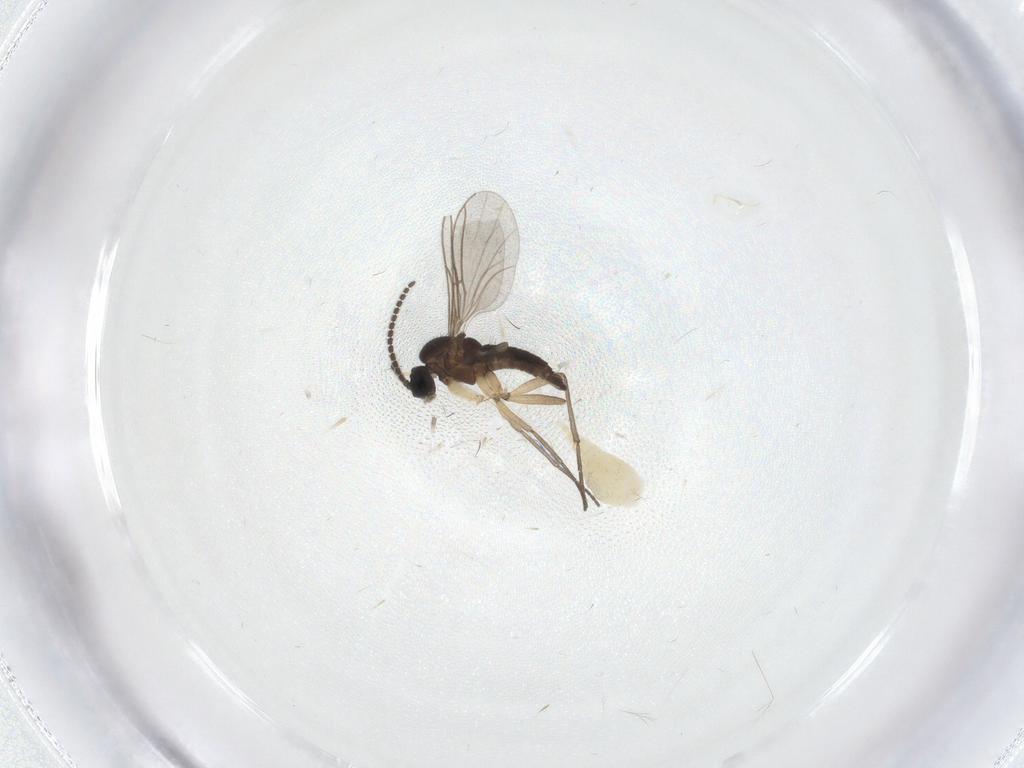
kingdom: Animalia
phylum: Arthropoda
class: Insecta
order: Diptera
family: Cecidomyiidae
